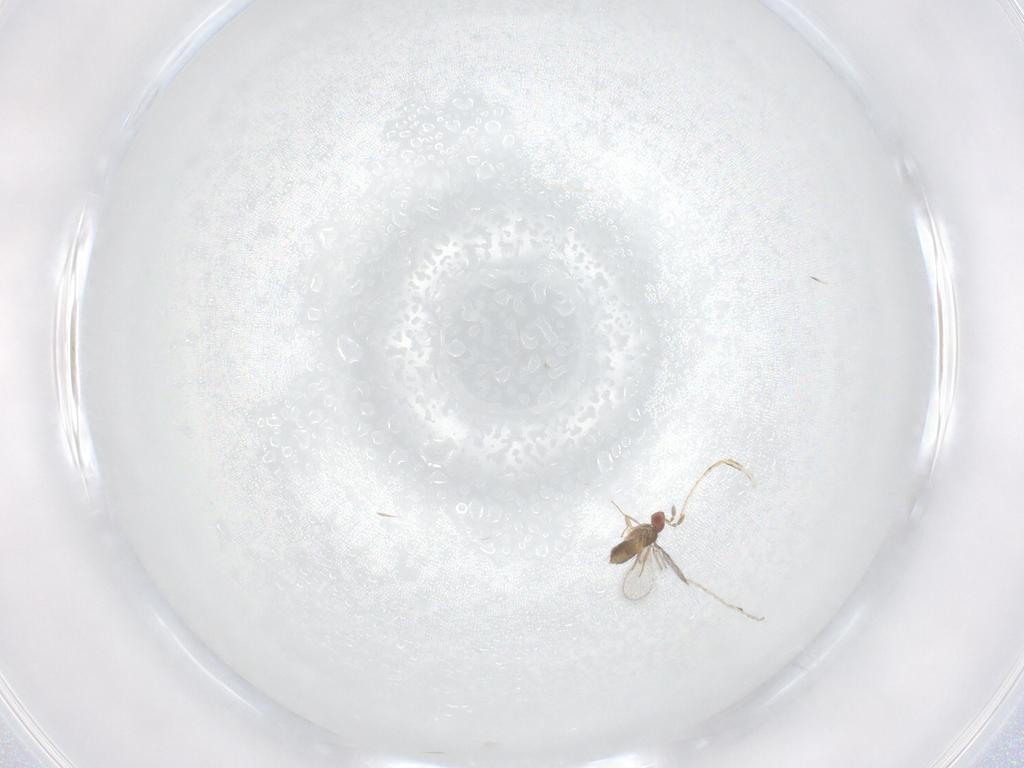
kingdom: Animalia
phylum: Arthropoda
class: Insecta
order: Hymenoptera
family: Trichogrammatidae
